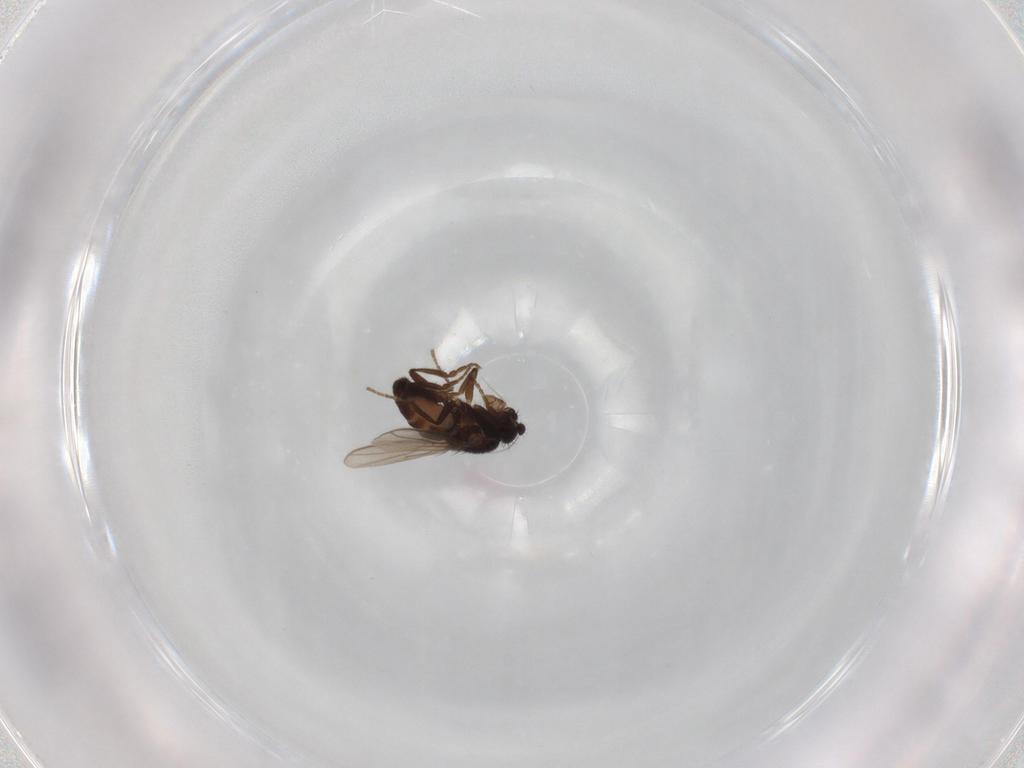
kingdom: Animalia
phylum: Arthropoda
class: Insecta
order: Diptera
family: Sphaeroceridae
